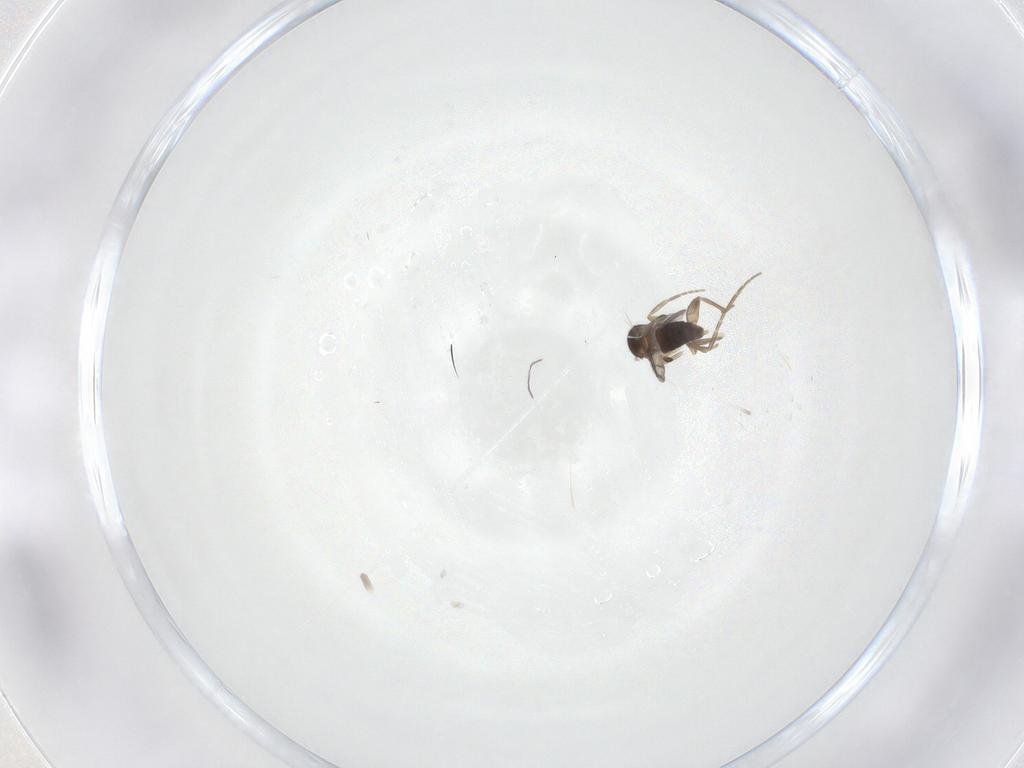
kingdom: Animalia
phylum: Arthropoda
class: Insecta
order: Diptera
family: Phoridae
